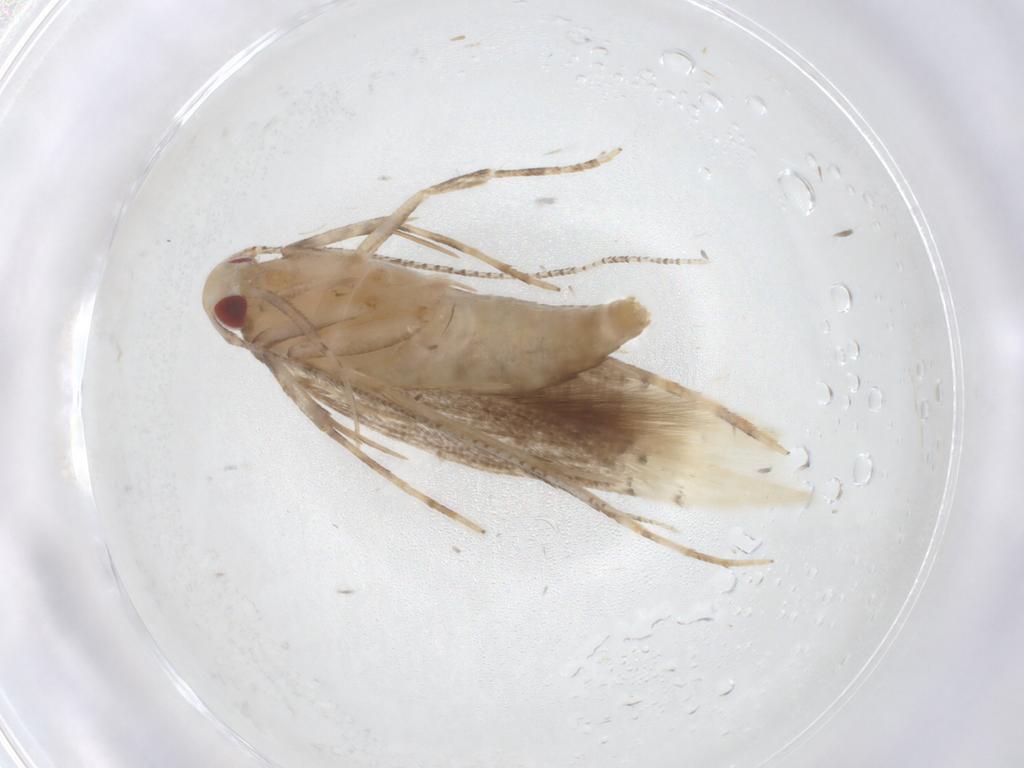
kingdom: Animalia
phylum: Arthropoda
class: Insecta
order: Lepidoptera
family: Cosmopterigidae
